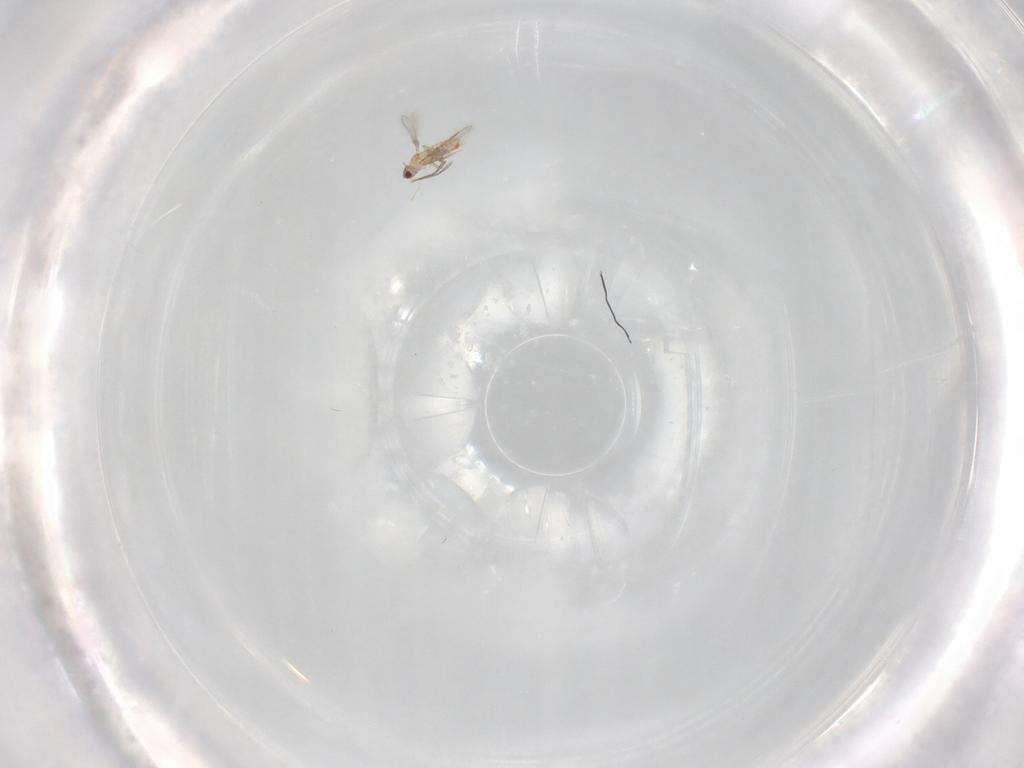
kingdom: Animalia
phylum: Arthropoda
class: Insecta
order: Hymenoptera
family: Mymaridae
